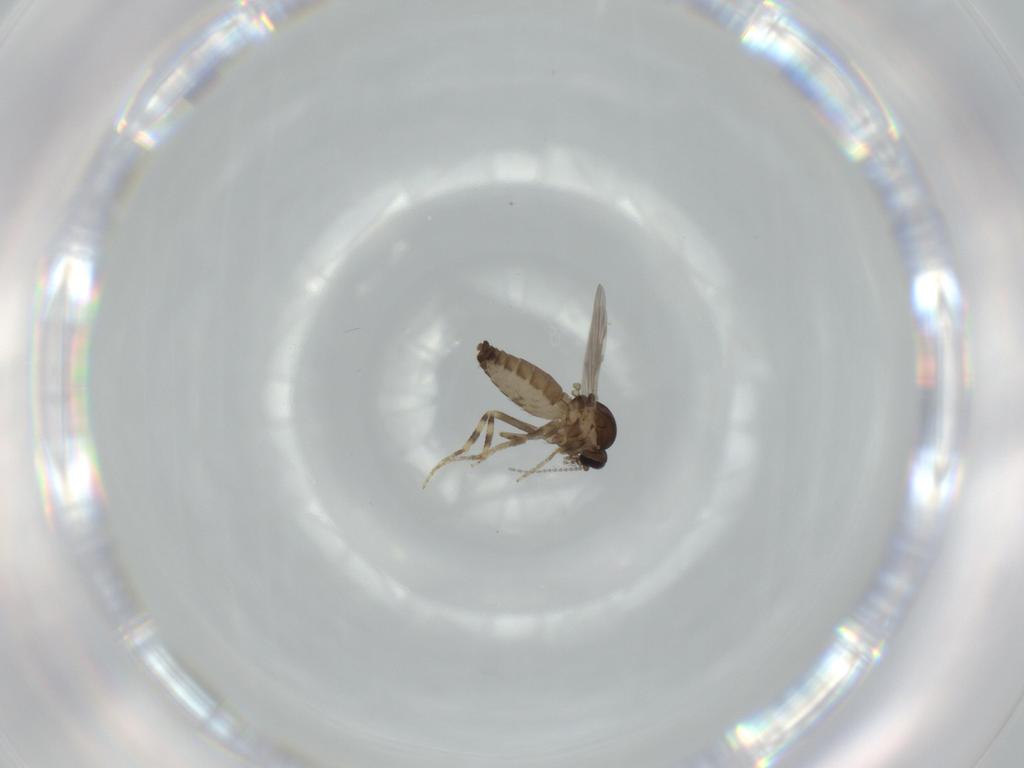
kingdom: Animalia
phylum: Arthropoda
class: Insecta
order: Diptera
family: Ceratopogonidae
